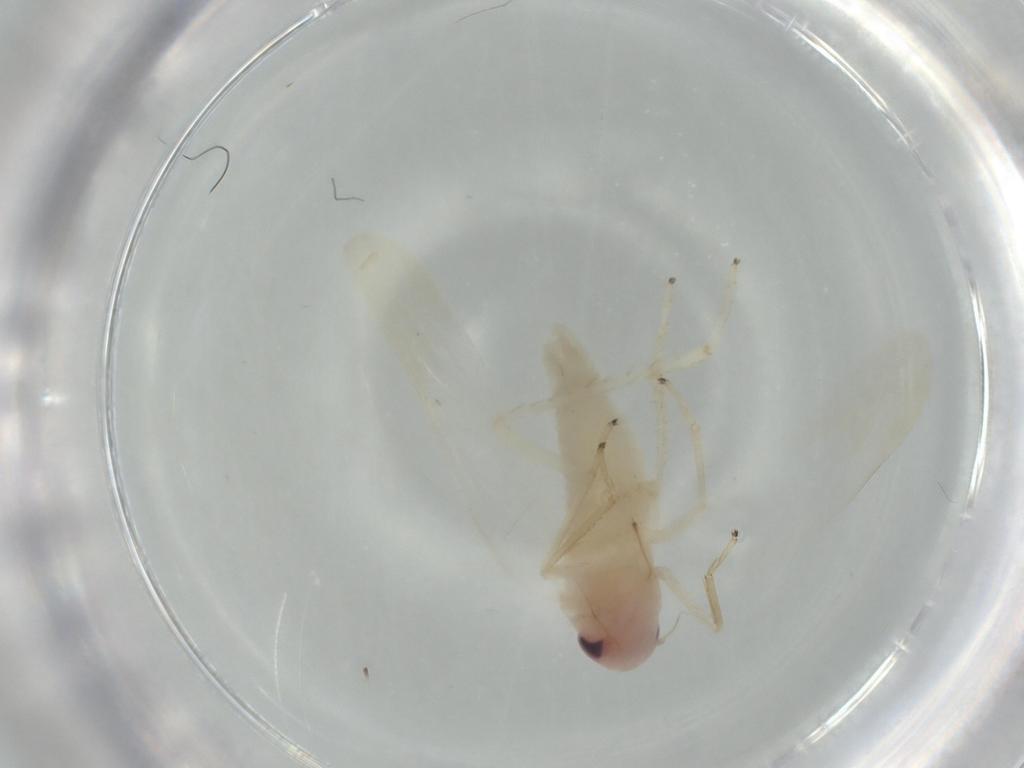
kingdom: Animalia
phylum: Arthropoda
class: Insecta
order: Hemiptera
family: Cicadellidae
